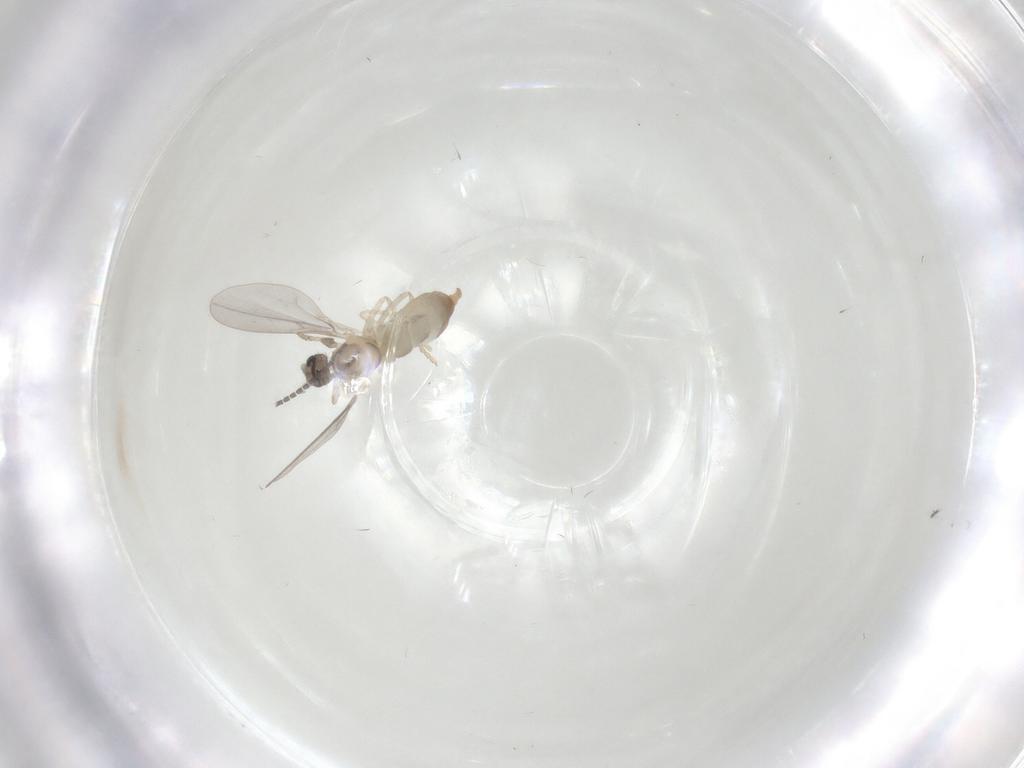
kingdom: Animalia
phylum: Arthropoda
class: Insecta
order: Diptera
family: Cecidomyiidae
